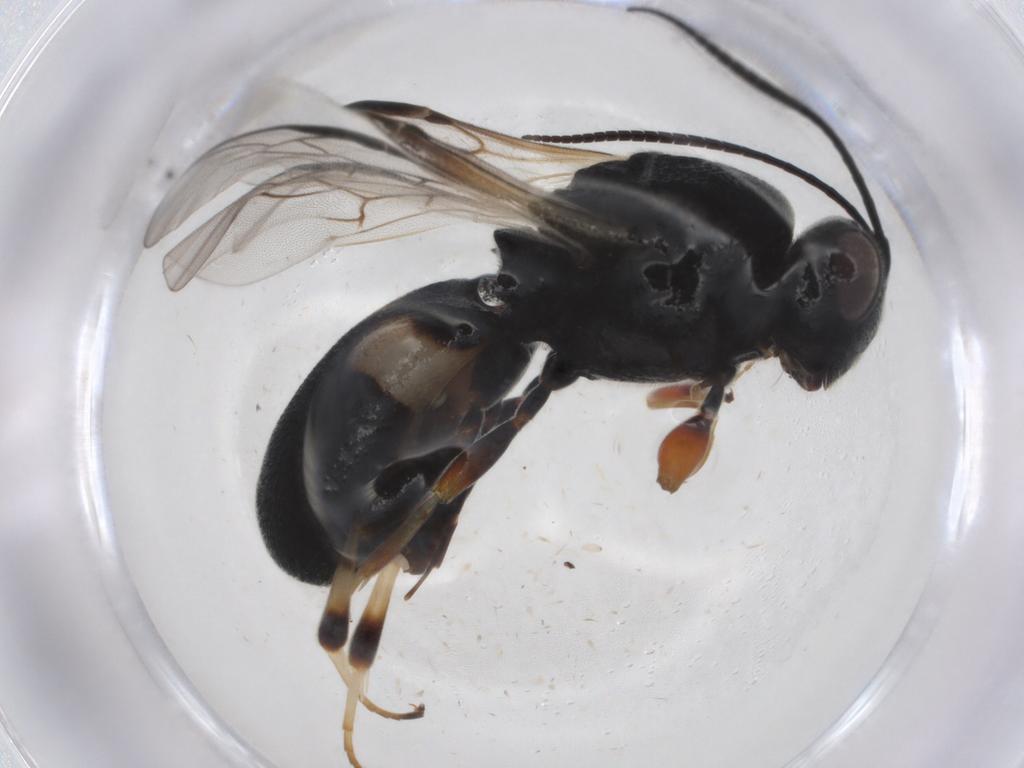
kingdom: Animalia
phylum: Arthropoda
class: Insecta
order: Hymenoptera
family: Braconidae
